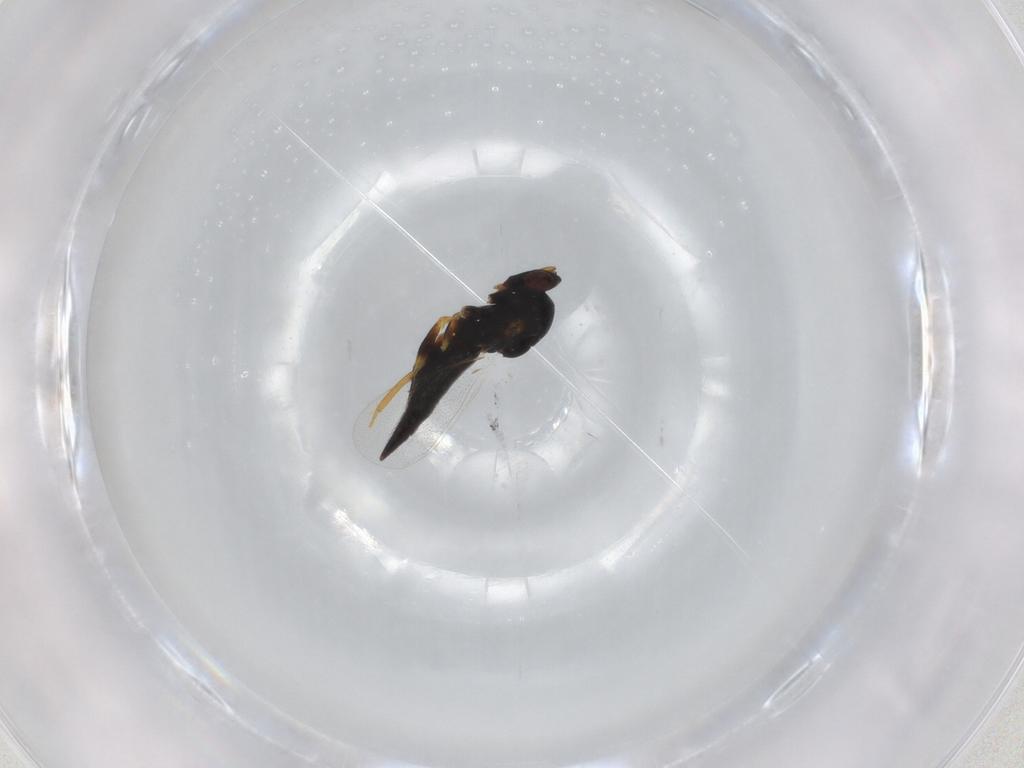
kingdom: Animalia
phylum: Arthropoda
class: Insecta
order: Hymenoptera
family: Eulophidae
